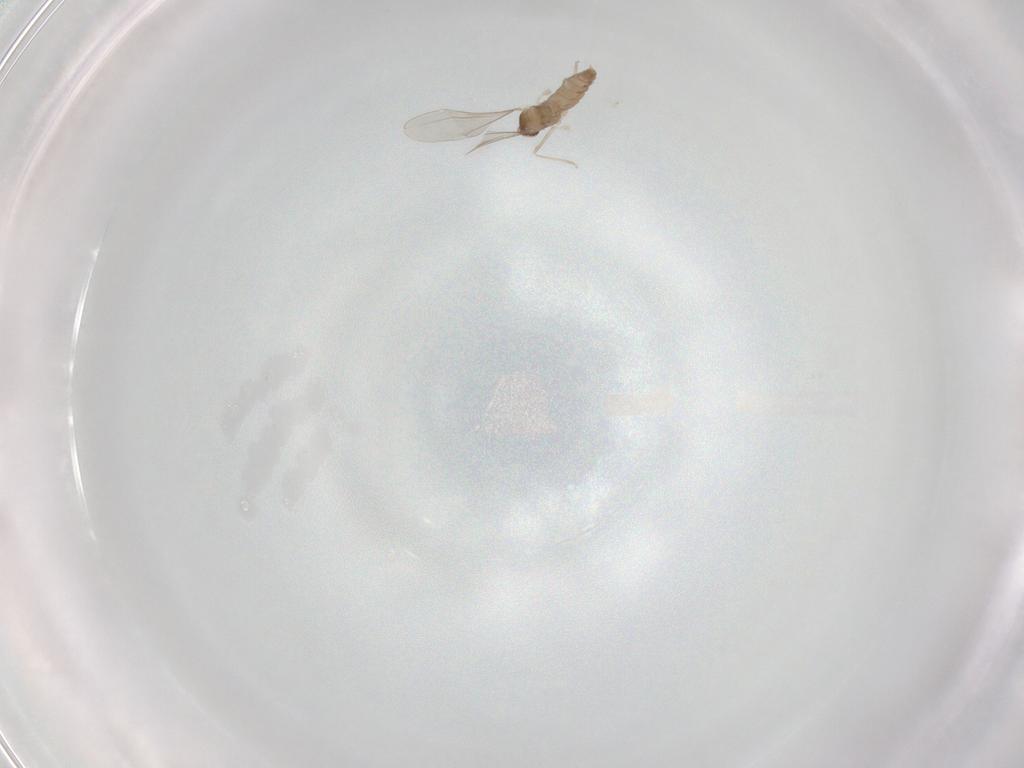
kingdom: Animalia
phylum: Arthropoda
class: Insecta
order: Diptera
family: Cecidomyiidae
